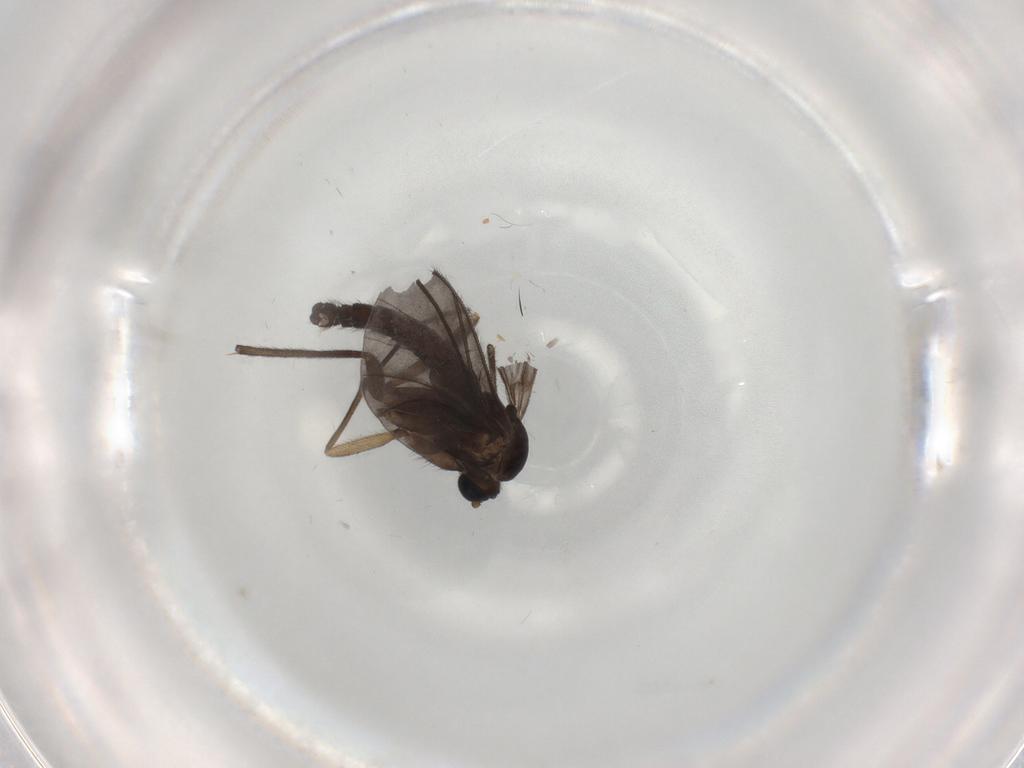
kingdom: Animalia
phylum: Arthropoda
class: Insecta
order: Diptera
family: Sciaridae
